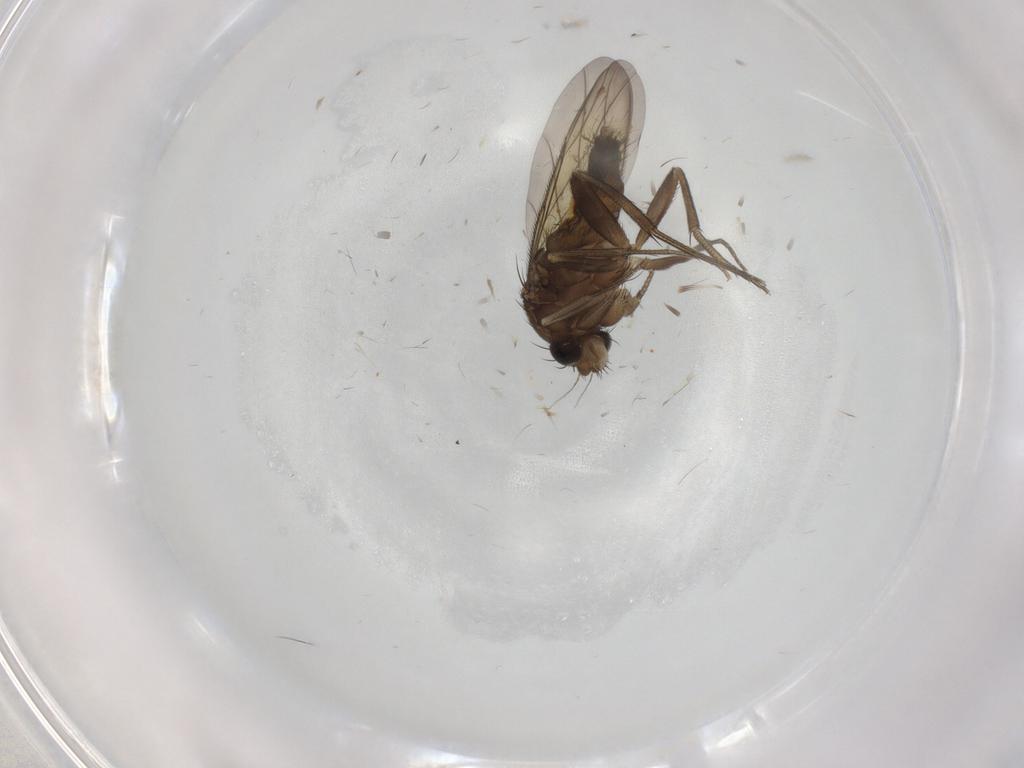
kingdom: Animalia
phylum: Arthropoda
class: Insecta
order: Diptera
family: Phoridae
